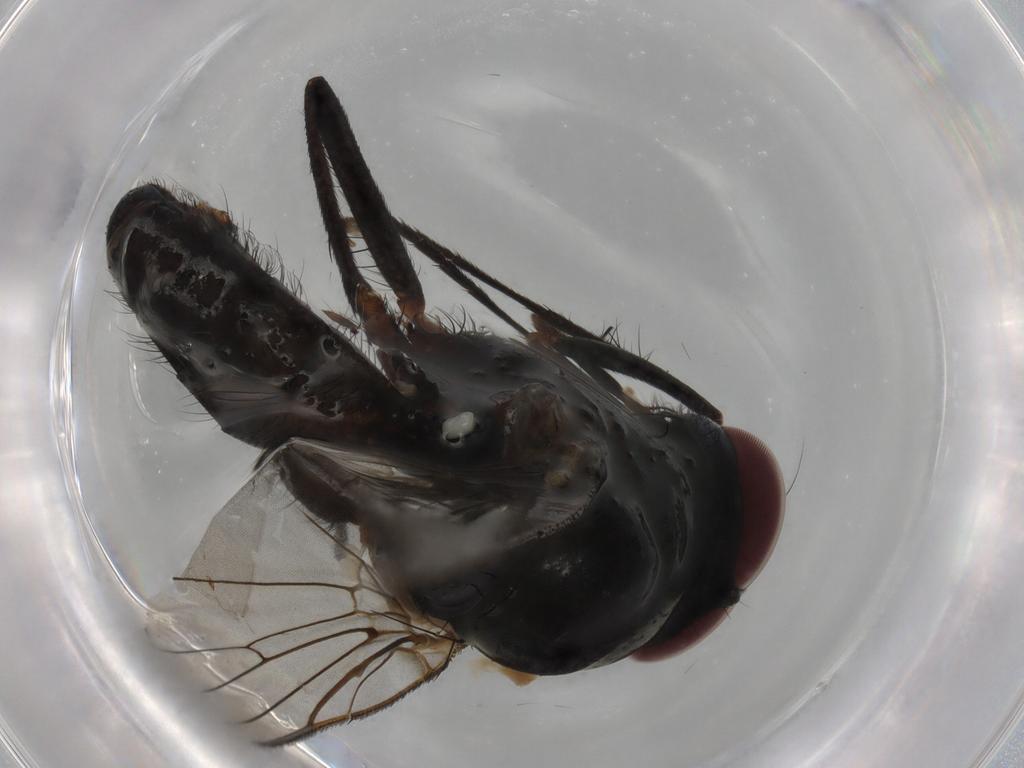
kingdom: Animalia
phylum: Arthropoda
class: Insecta
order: Diptera
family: Anthomyiidae
